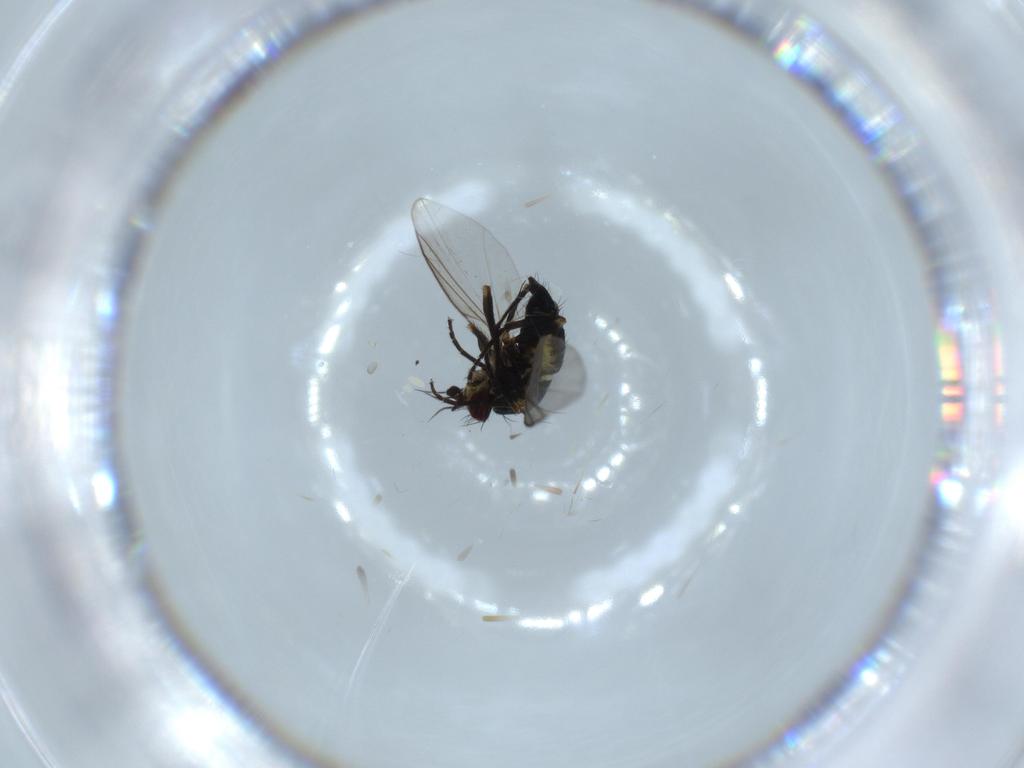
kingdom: Animalia
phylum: Arthropoda
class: Insecta
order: Diptera
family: Agromyzidae
